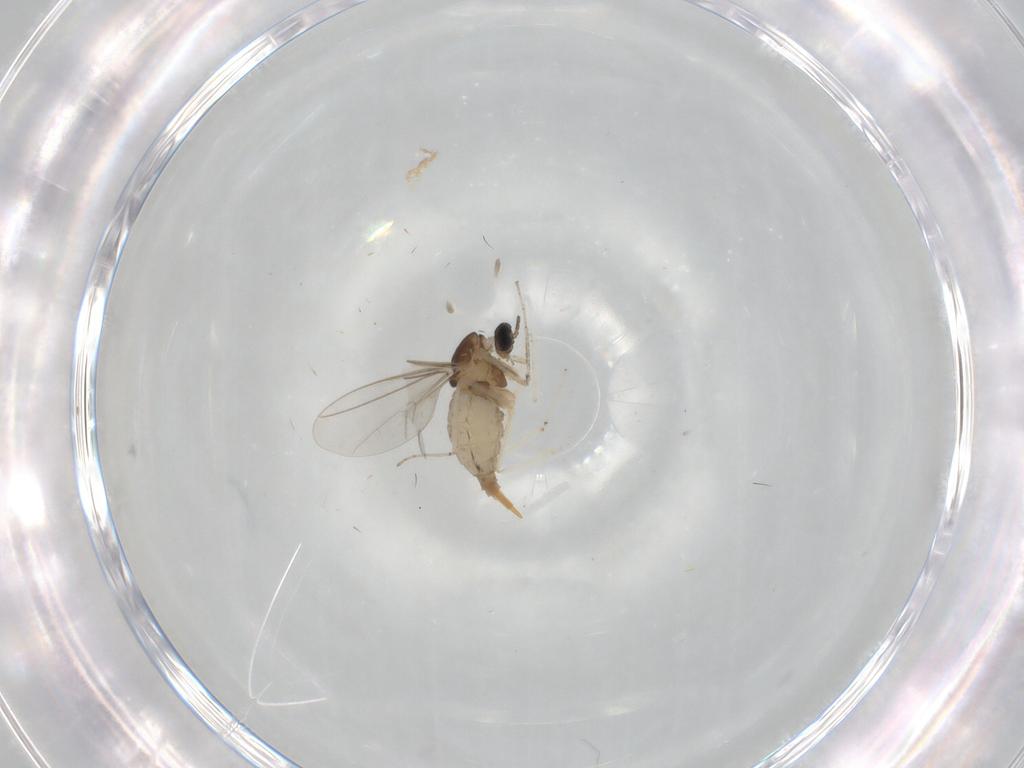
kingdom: Animalia
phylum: Arthropoda
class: Insecta
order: Diptera
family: Cecidomyiidae
